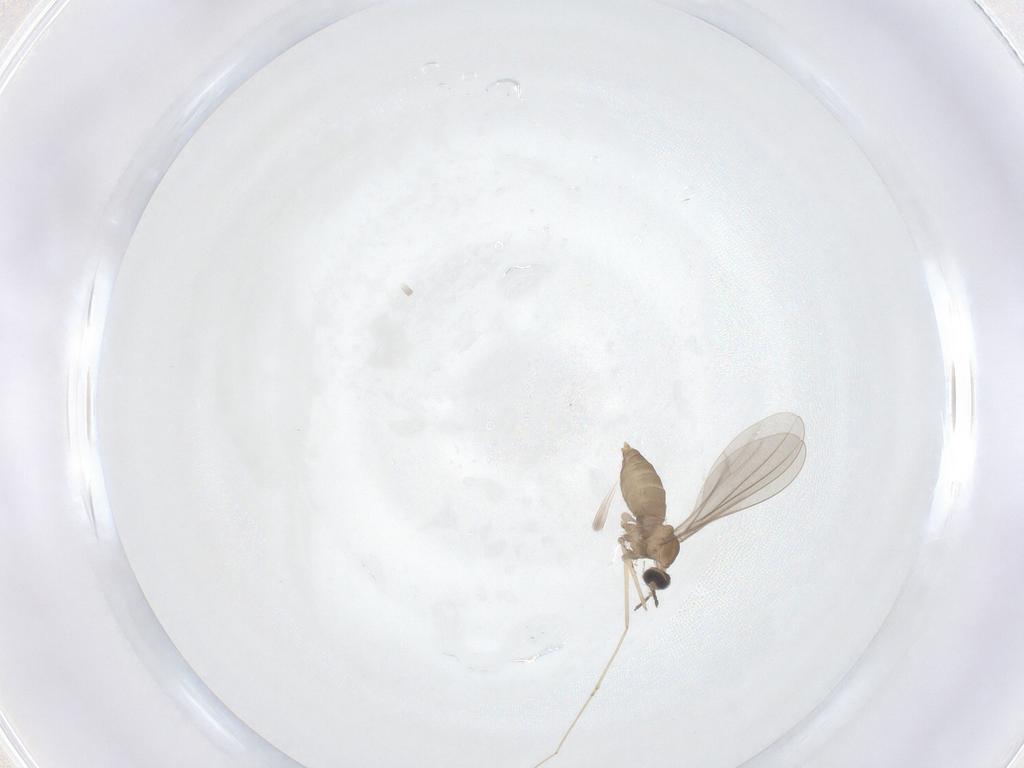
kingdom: Animalia
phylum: Arthropoda
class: Insecta
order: Diptera
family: Cecidomyiidae
